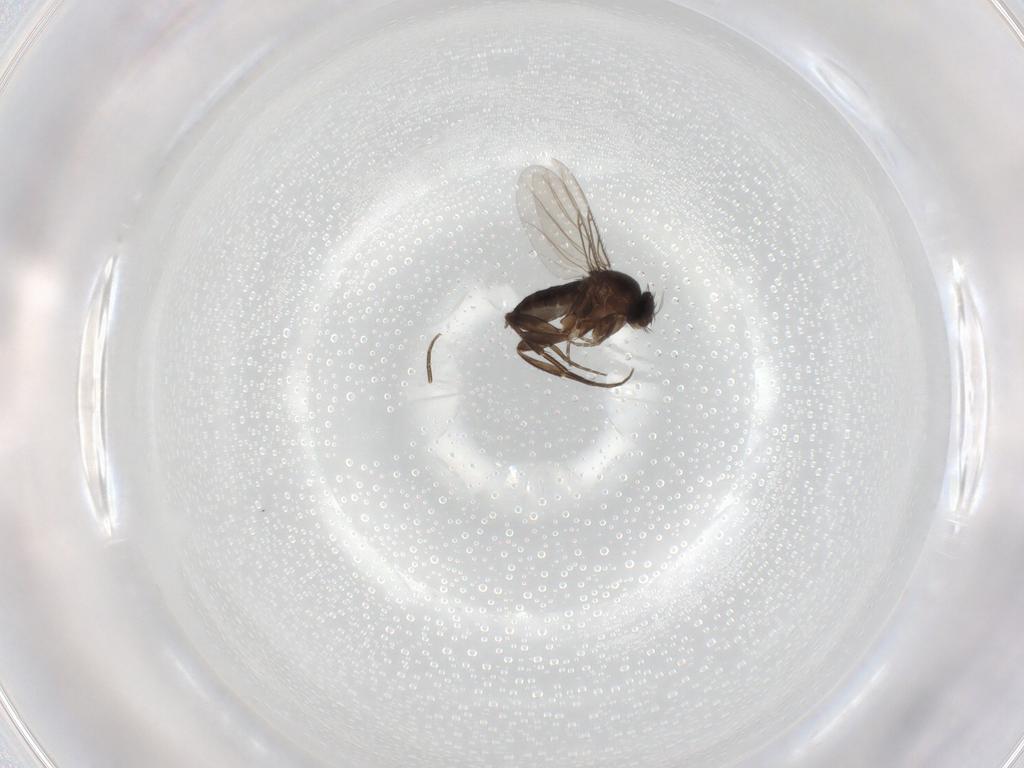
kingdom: Animalia
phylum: Arthropoda
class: Insecta
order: Diptera
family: Phoridae
